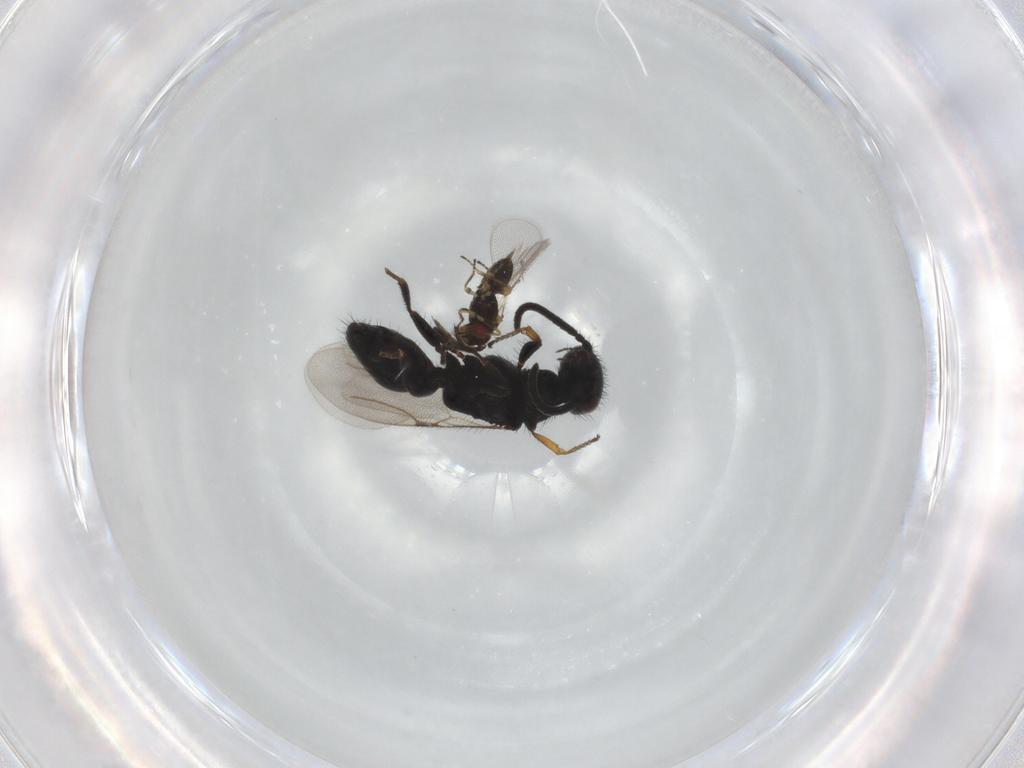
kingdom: Animalia
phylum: Arthropoda
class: Insecta
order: Hymenoptera
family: Bethylidae
